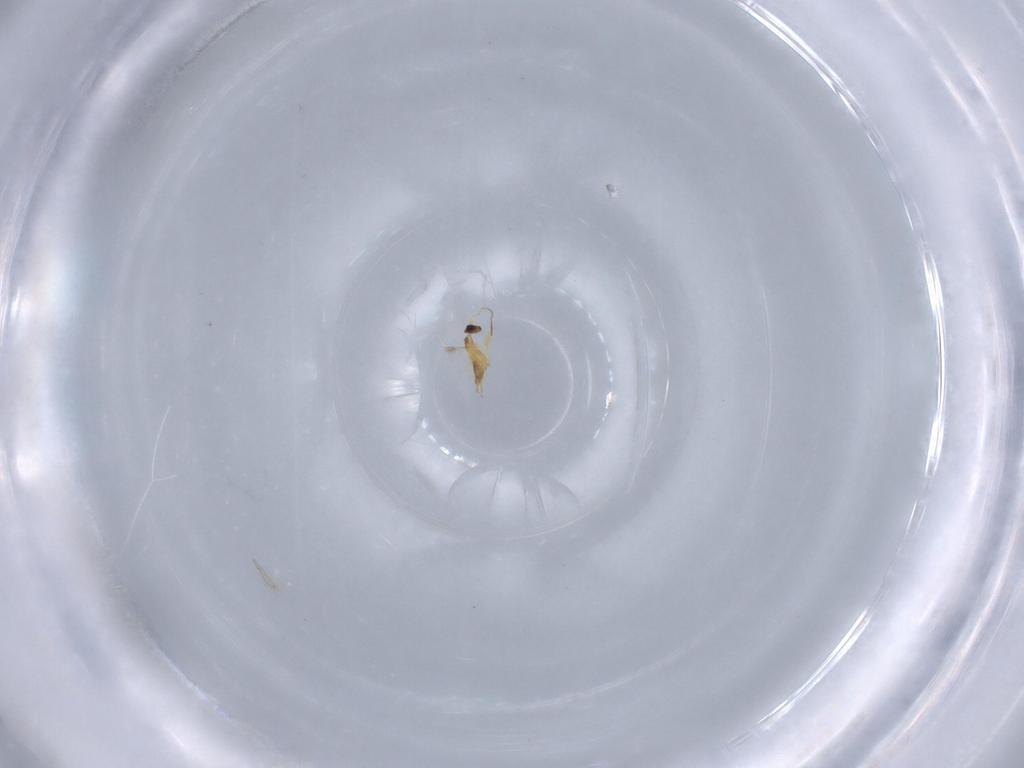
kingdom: Animalia
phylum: Arthropoda
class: Insecta
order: Hymenoptera
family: Mymaridae
